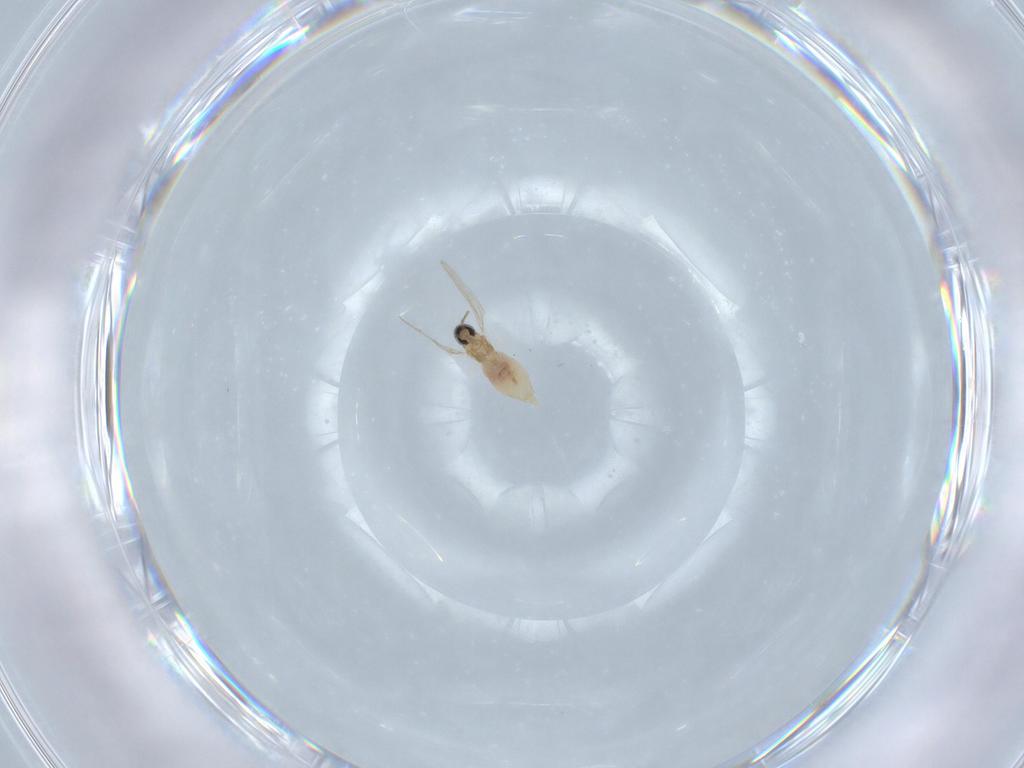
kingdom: Animalia
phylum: Arthropoda
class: Insecta
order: Diptera
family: Cecidomyiidae
